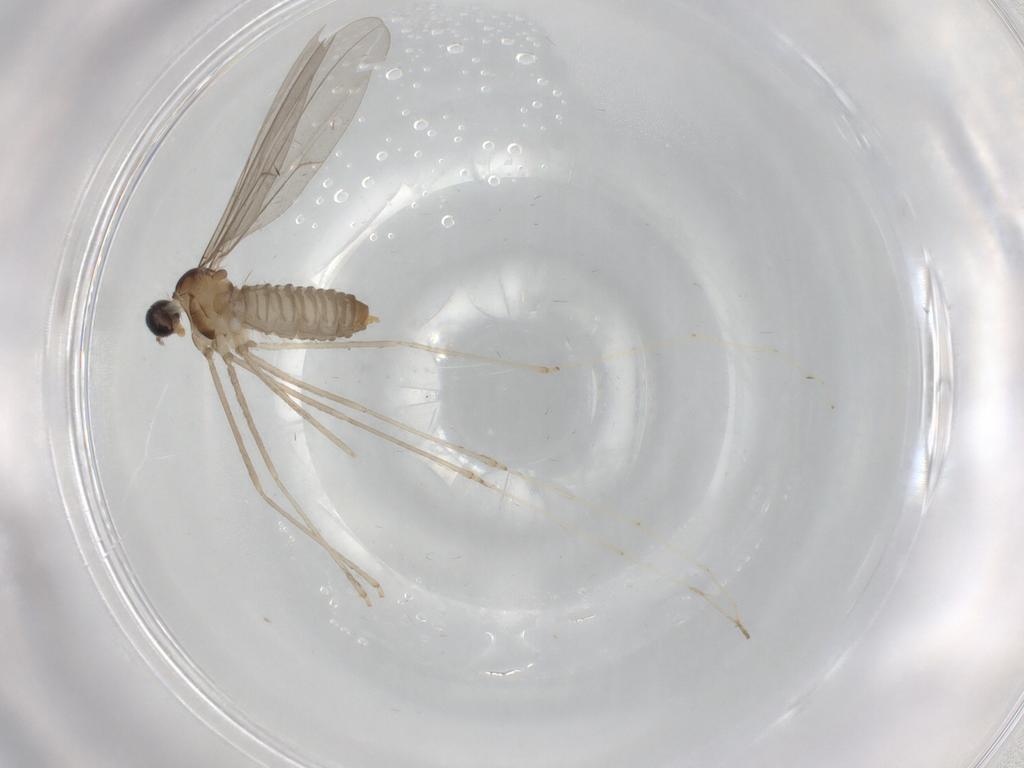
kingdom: Animalia
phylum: Arthropoda
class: Insecta
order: Diptera
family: Cecidomyiidae
